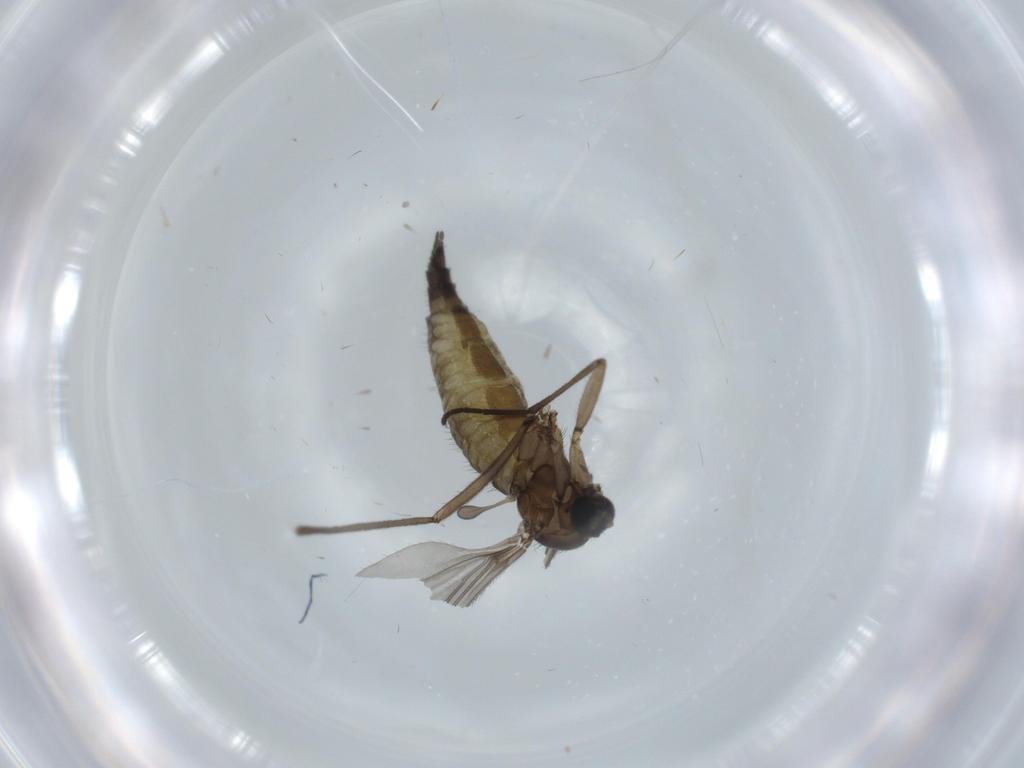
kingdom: Animalia
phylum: Arthropoda
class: Insecta
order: Diptera
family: Sciaridae
